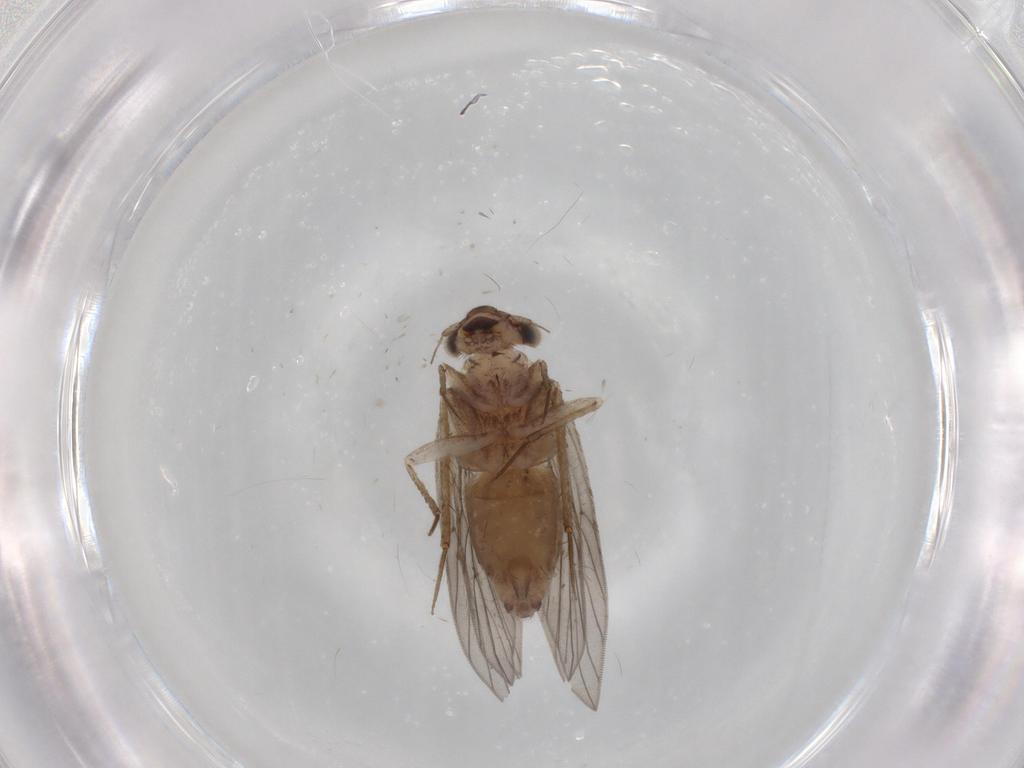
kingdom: Animalia
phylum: Arthropoda
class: Insecta
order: Psocodea
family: Lepidopsocidae
